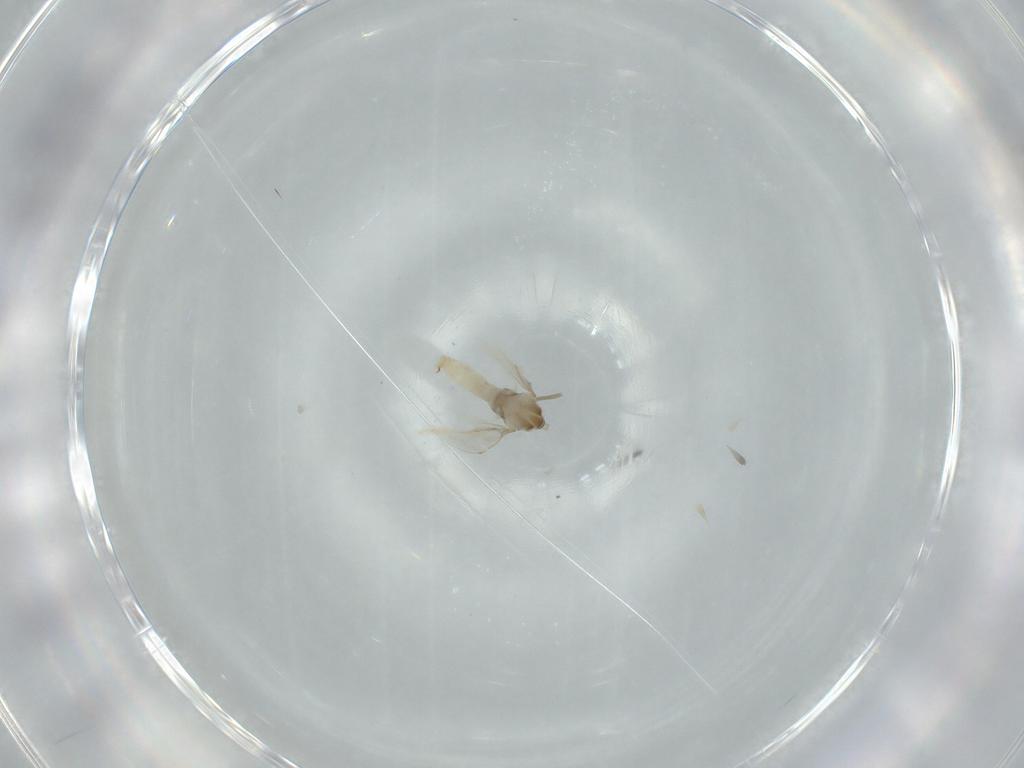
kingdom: Animalia
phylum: Arthropoda
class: Insecta
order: Diptera
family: Cecidomyiidae
